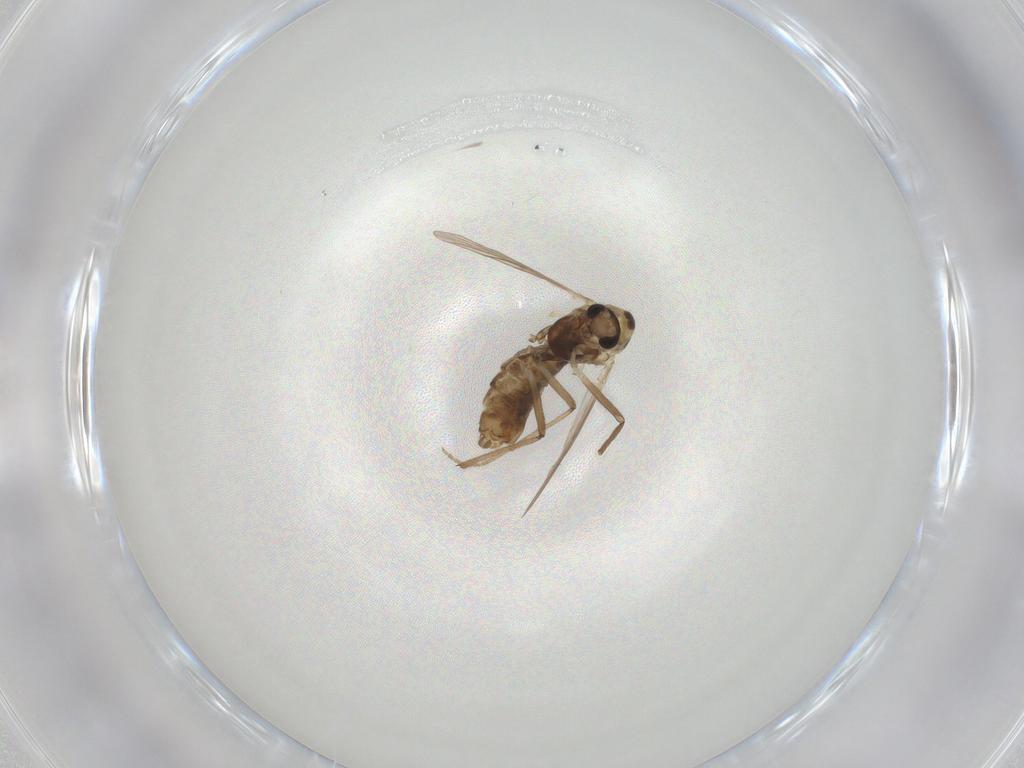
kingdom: Animalia
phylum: Arthropoda
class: Insecta
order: Diptera
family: Chironomidae
